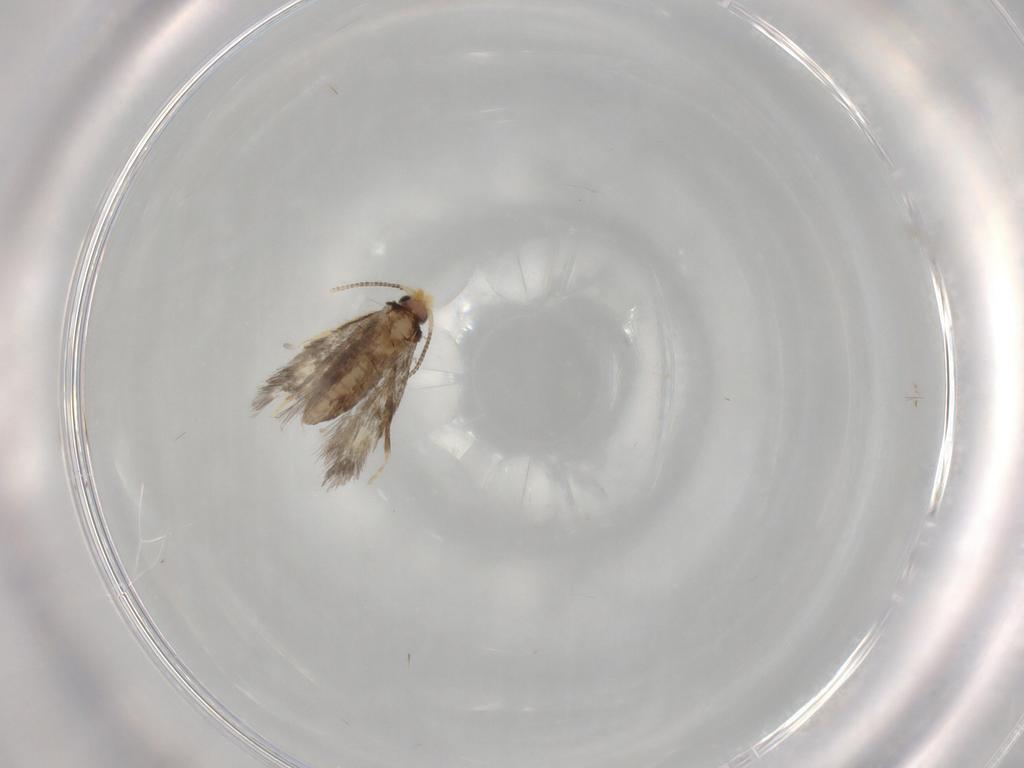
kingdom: Animalia
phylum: Arthropoda
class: Insecta
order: Lepidoptera
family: Nepticulidae
